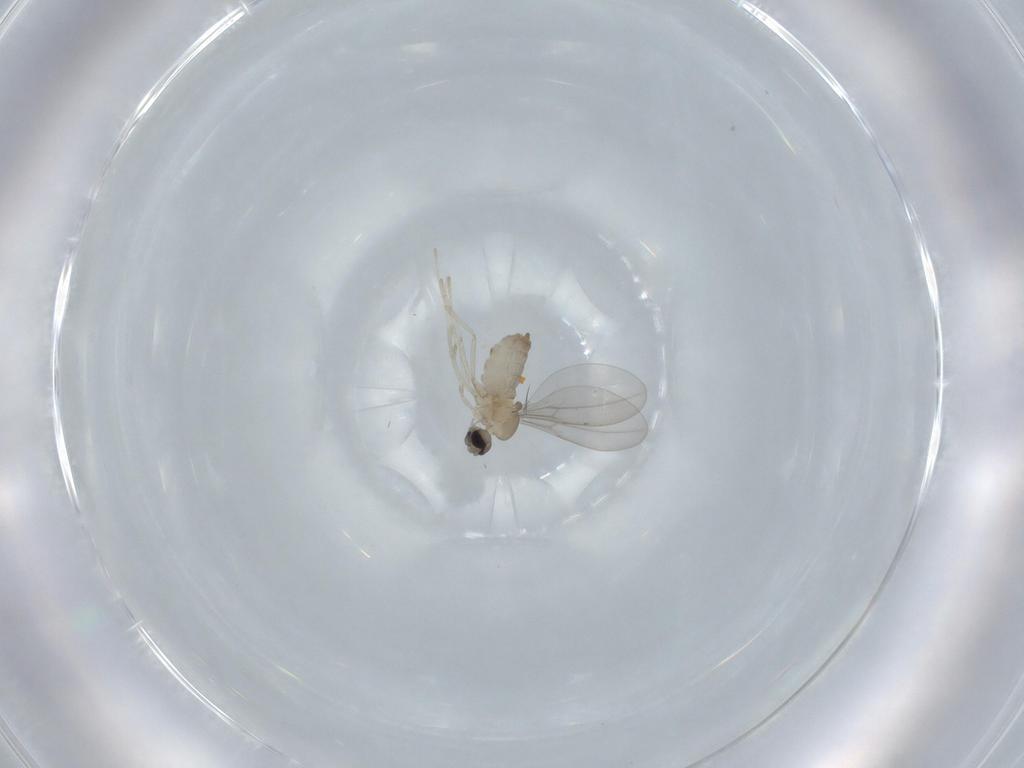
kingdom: Animalia
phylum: Arthropoda
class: Insecta
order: Diptera
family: Cecidomyiidae
